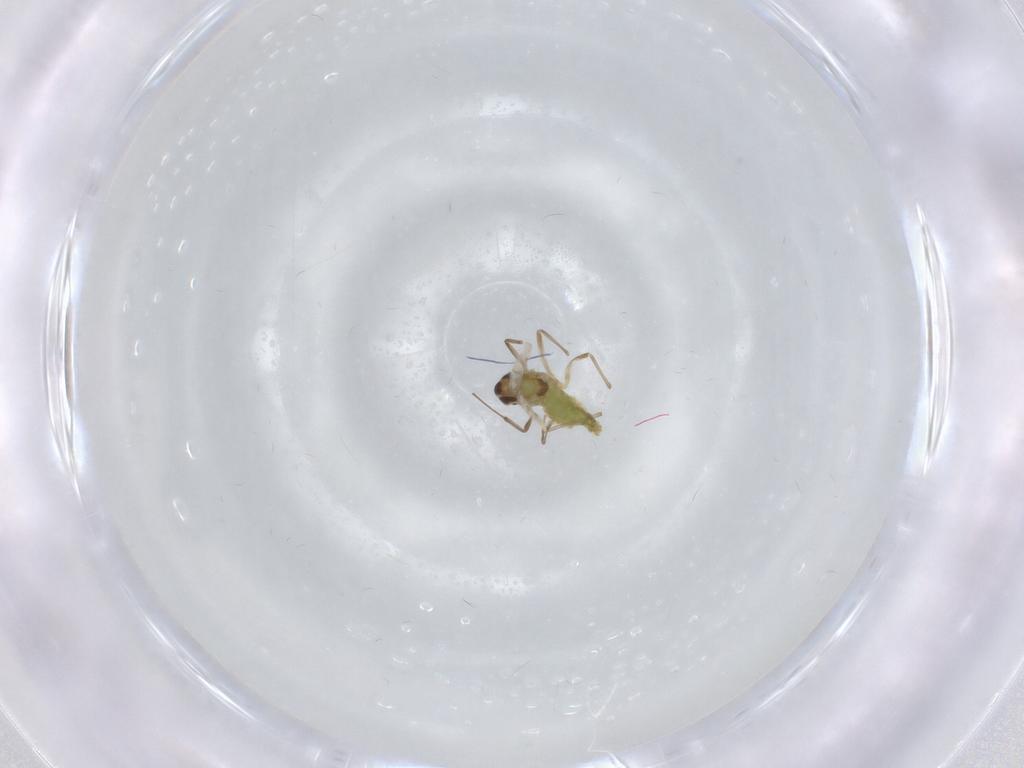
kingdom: Animalia
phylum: Arthropoda
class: Insecta
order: Diptera
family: Chironomidae
